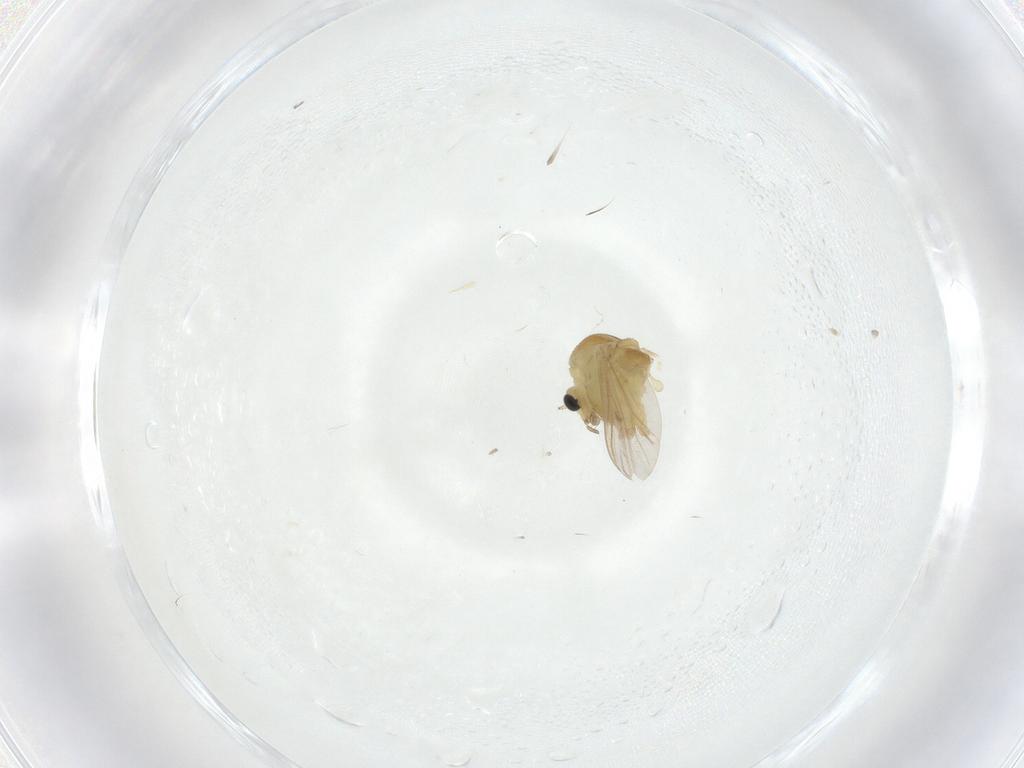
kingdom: Animalia
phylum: Arthropoda
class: Insecta
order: Diptera
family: Chironomidae
